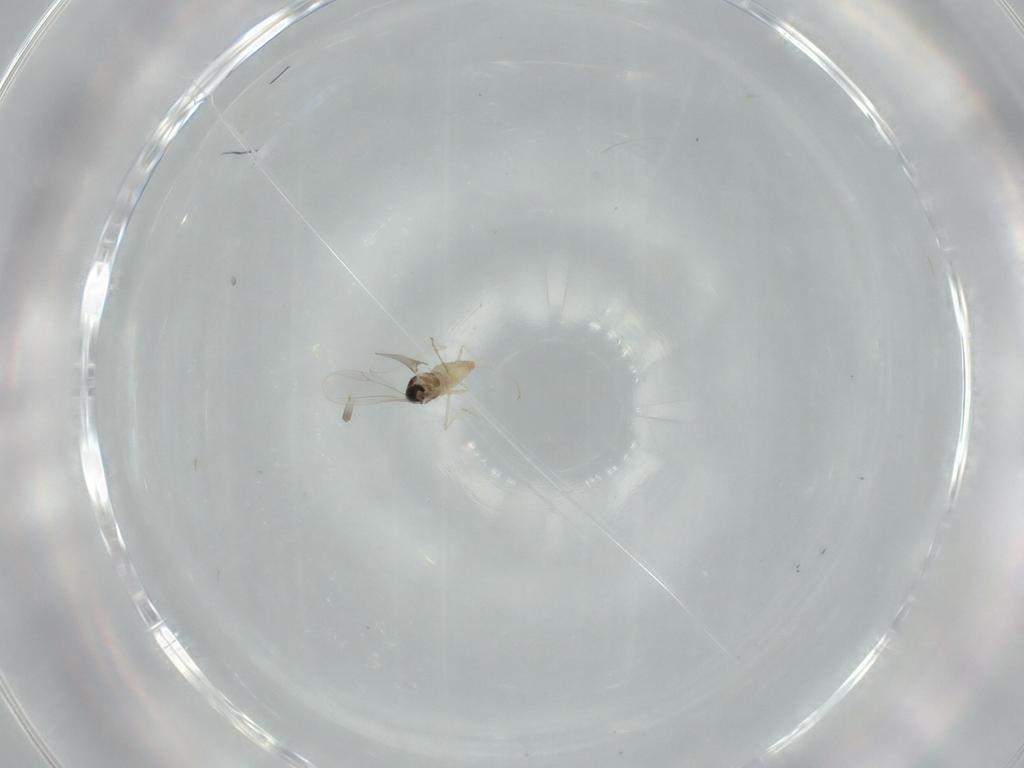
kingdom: Animalia
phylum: Arthropoda
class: Insecta
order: Diptera
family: Cecidomyiidae
